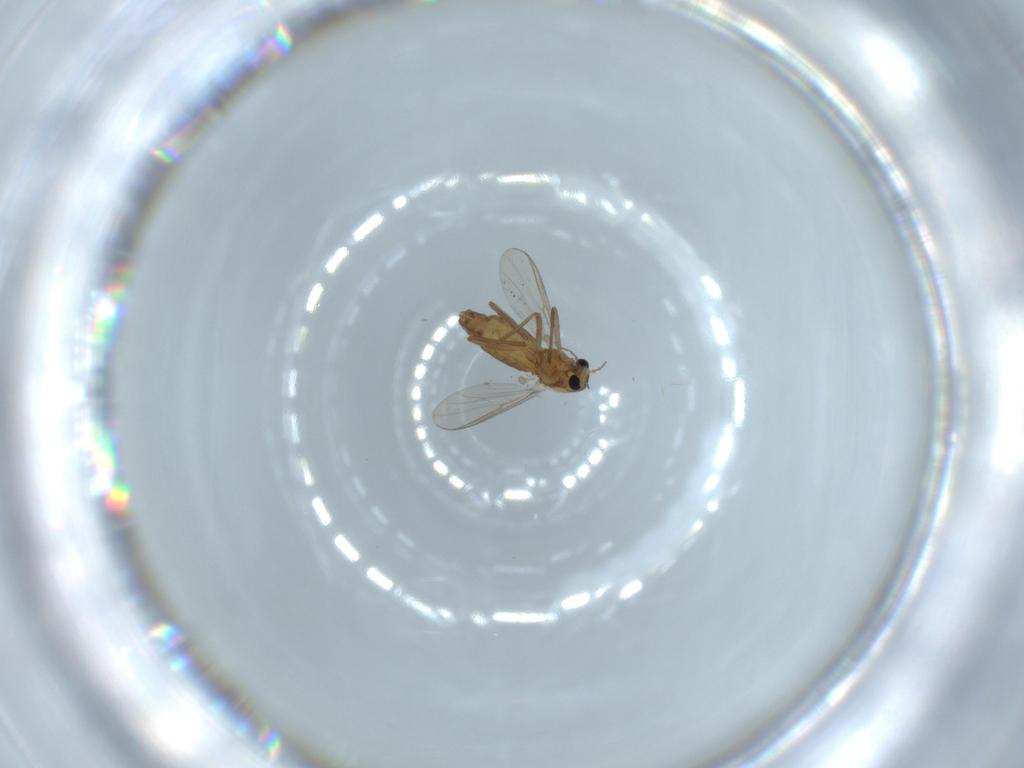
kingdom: Animalia
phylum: Arthropoda
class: Insecta
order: Diptera
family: Chironomidae
